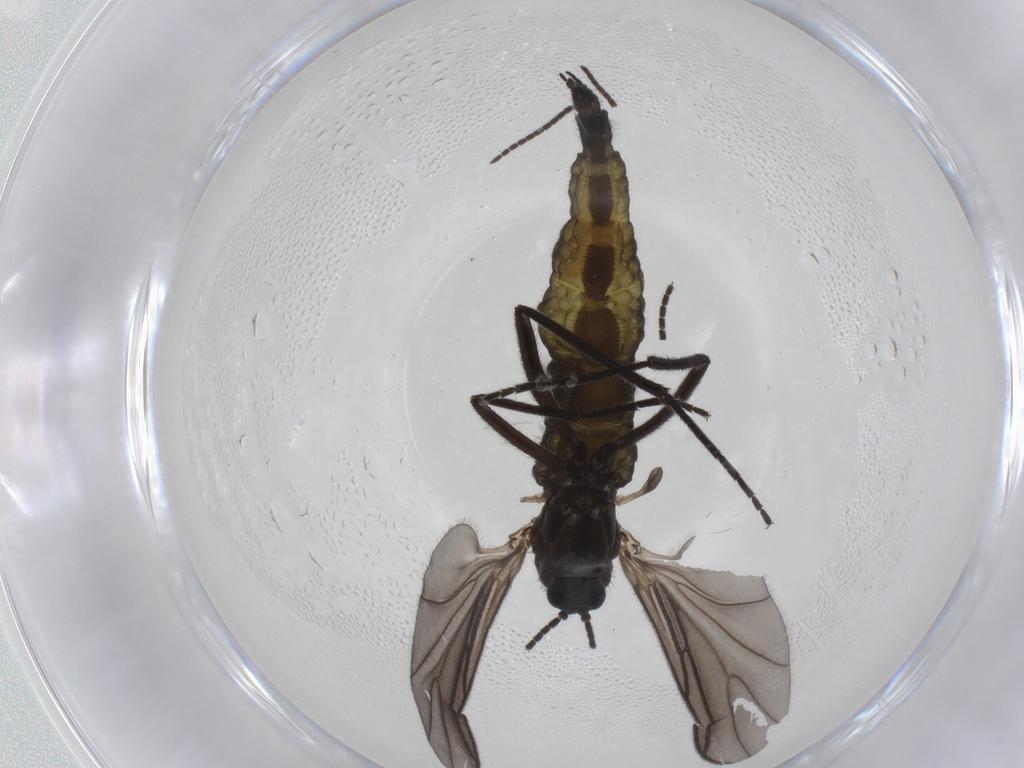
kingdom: Animalia
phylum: Arthropoda
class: Insecta
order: Diptera
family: Sciaridae
